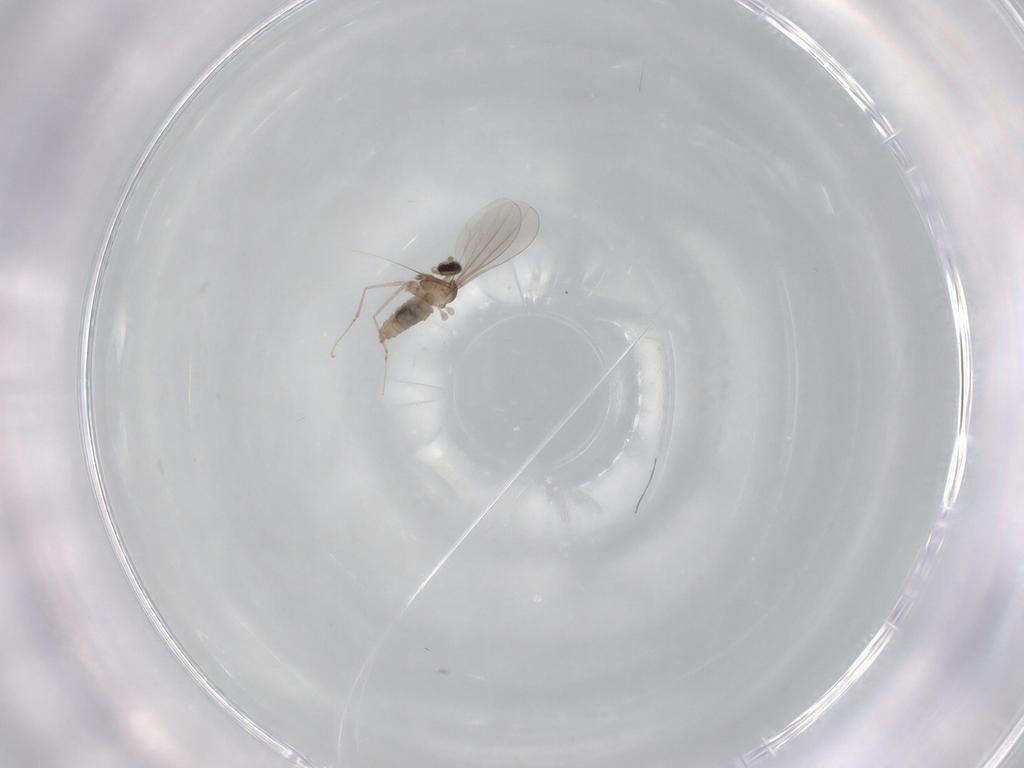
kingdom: Animalia
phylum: Arthropoda
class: Insecta
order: Diptera
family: Cecidomyiidae
